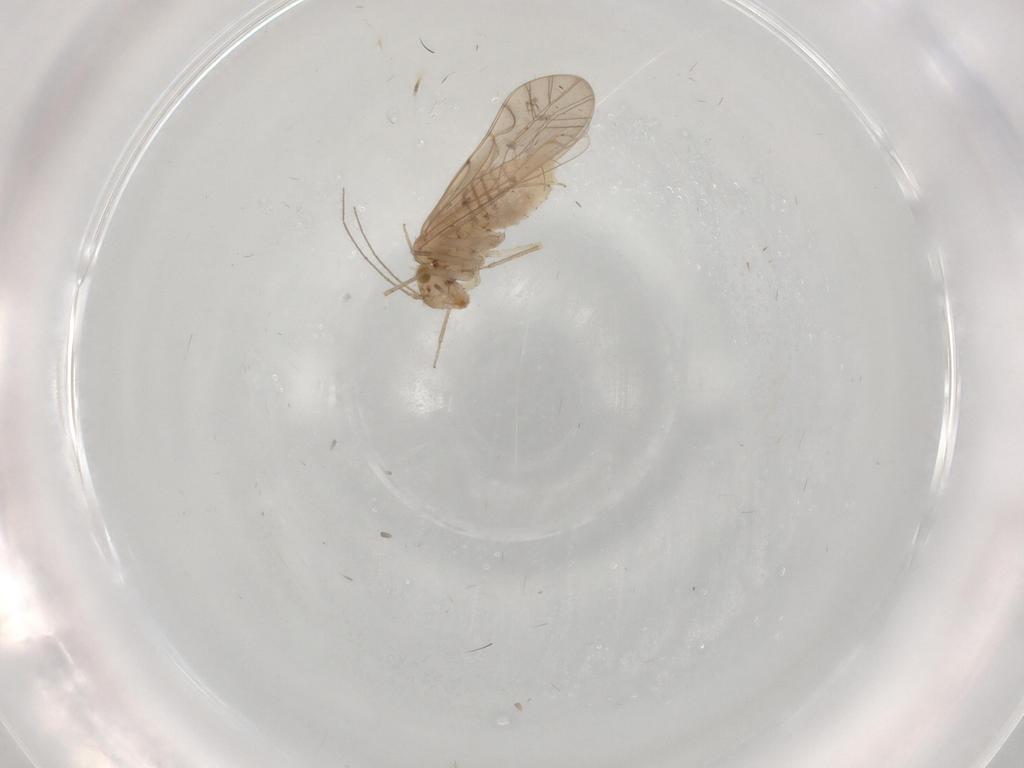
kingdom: Animalia
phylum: Arthropoda
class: Insecta
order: Psocodea
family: Lachesillidae
